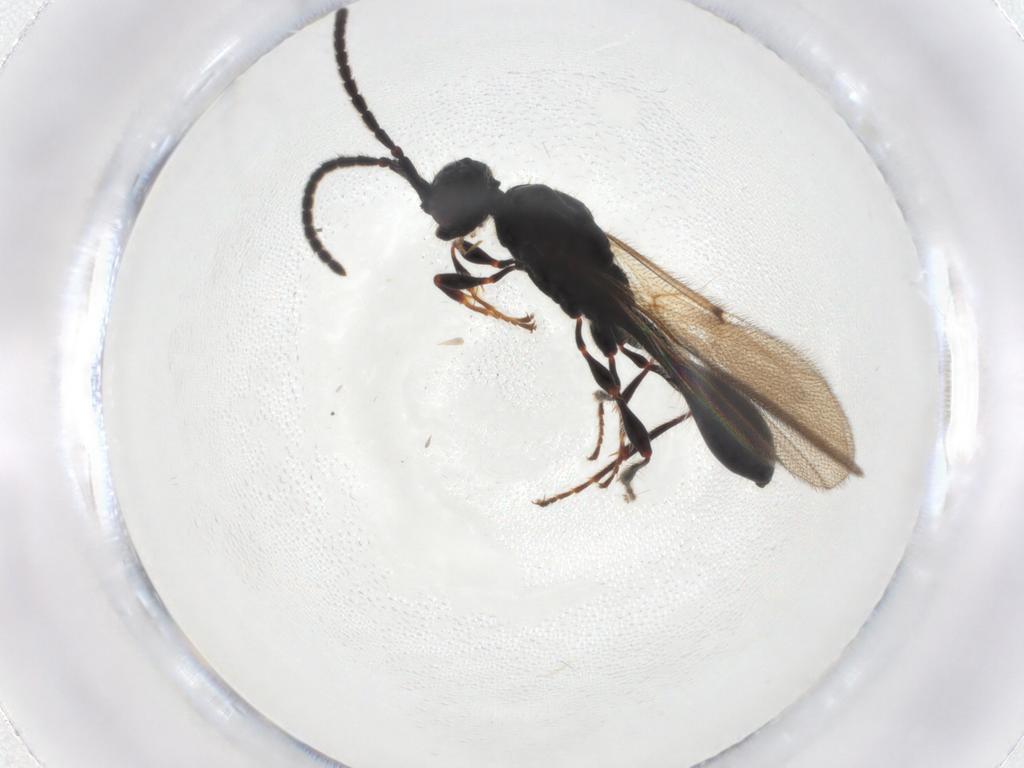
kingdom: Animalia
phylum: Arthropoda
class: Insecta
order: Hymenoptera
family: Diapriidae
